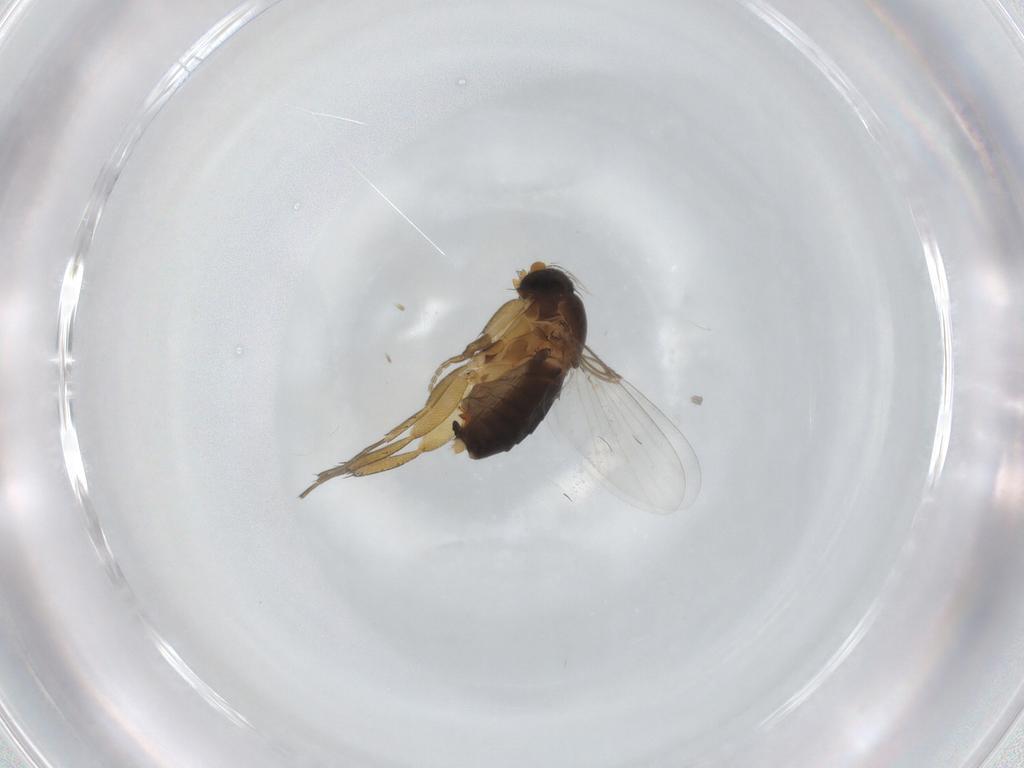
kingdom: Animalia
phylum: Arthropoda
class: Insecta
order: Diptera
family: Phoridae
